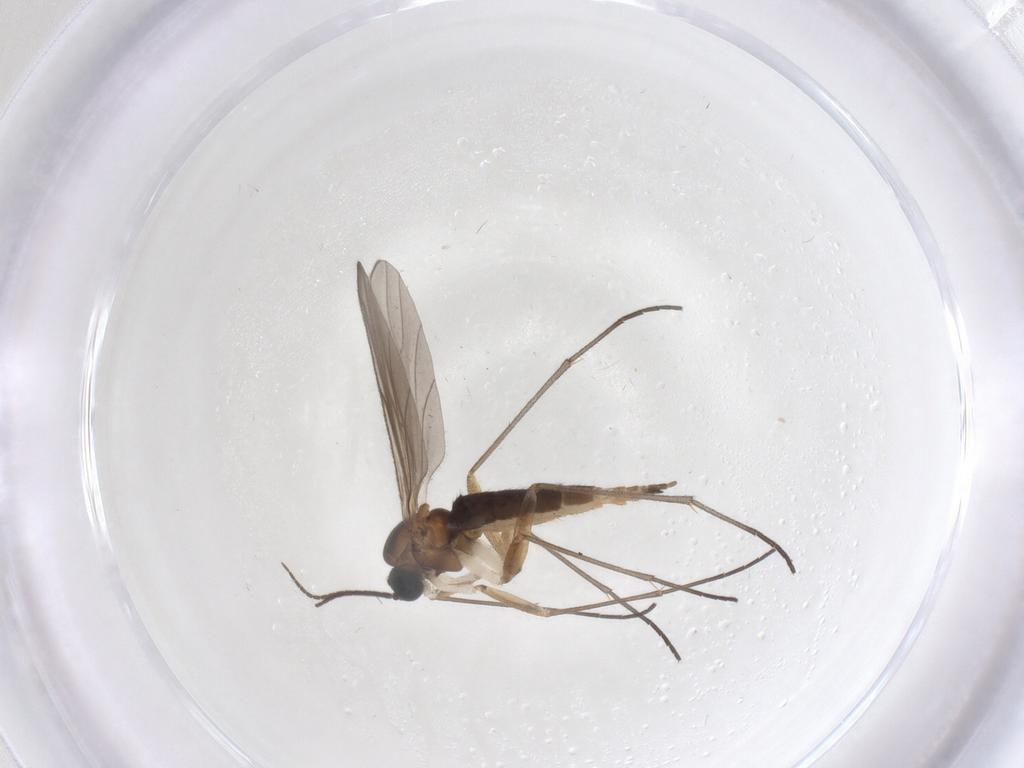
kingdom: Animalia
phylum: Arthropoda
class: Insecta
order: Diptera
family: Sciaridae
